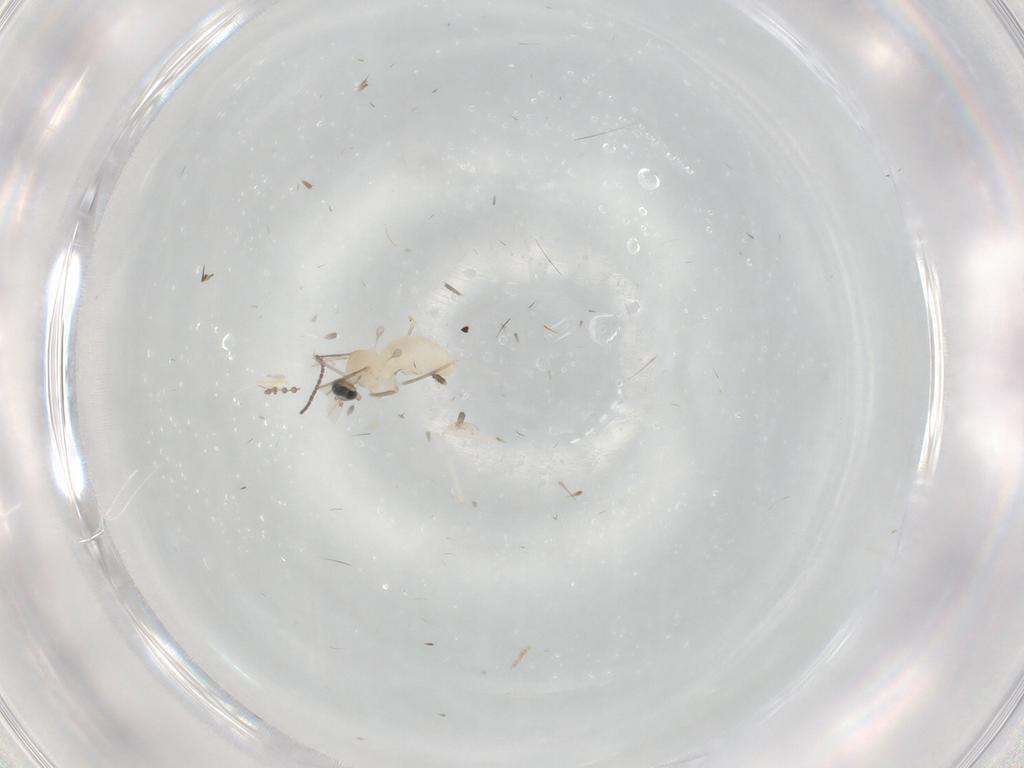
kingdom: Animalia
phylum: Arthropoda
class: Insecta
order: Diptera
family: Cecidomyiidae
